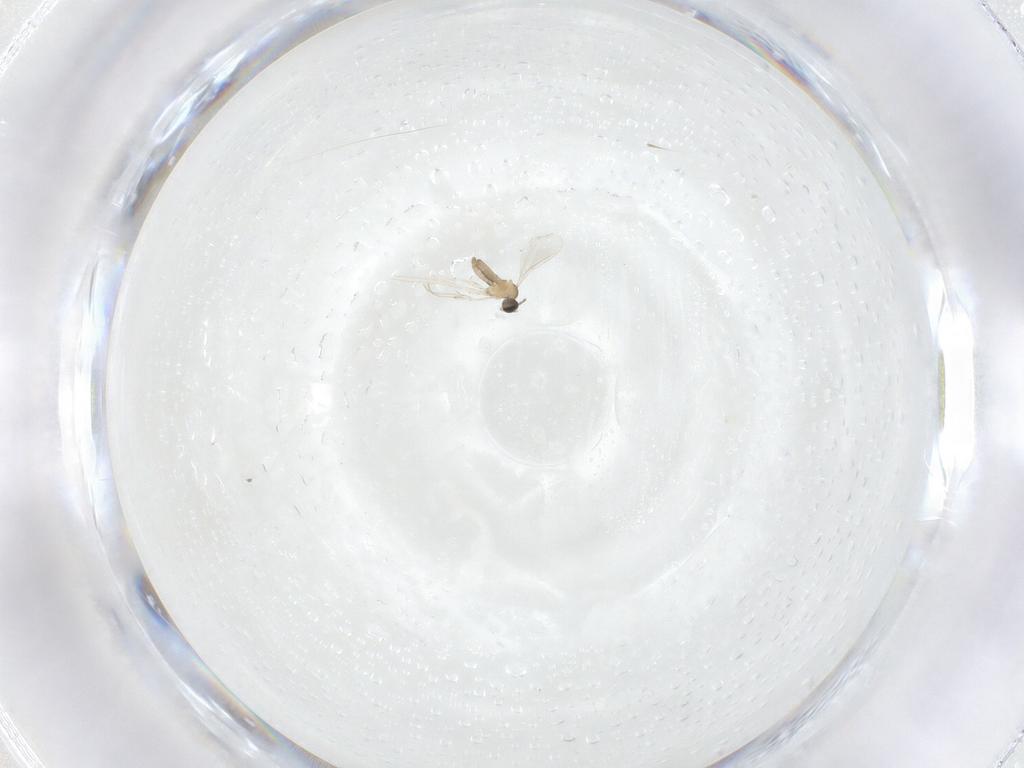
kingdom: Animalia
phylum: Arthropoda
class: Insecta
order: Diptera
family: Cecidomyiidae
